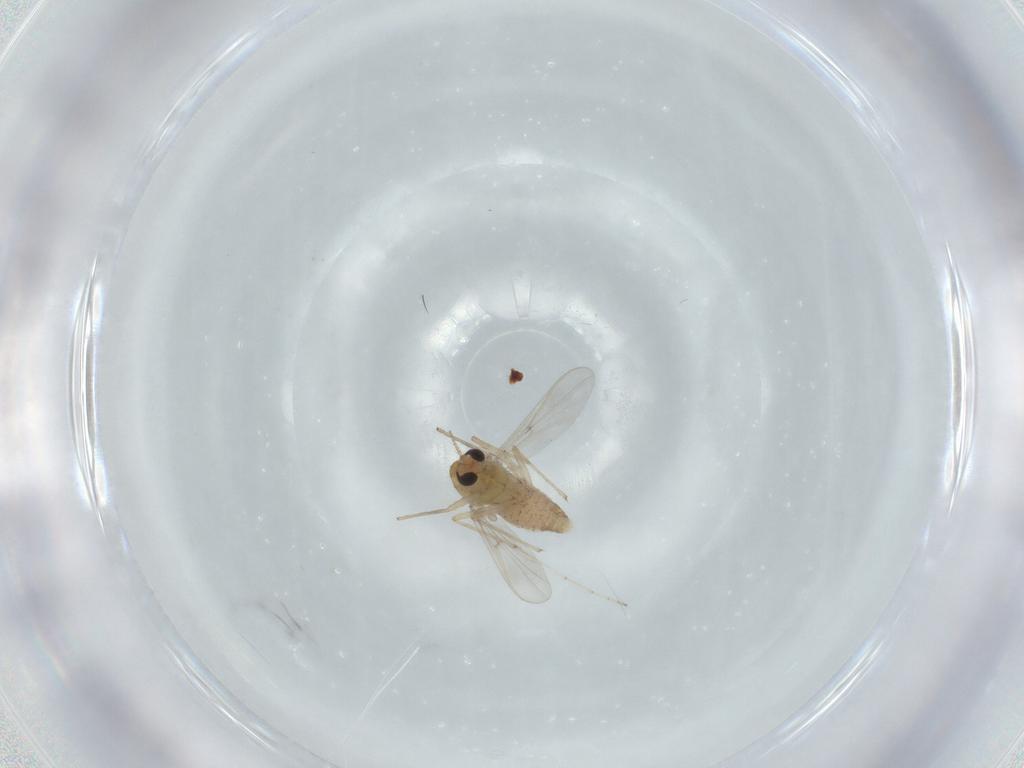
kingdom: Animalia
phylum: Arthropoda
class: Insecta
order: Diptera
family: Chironomidae
